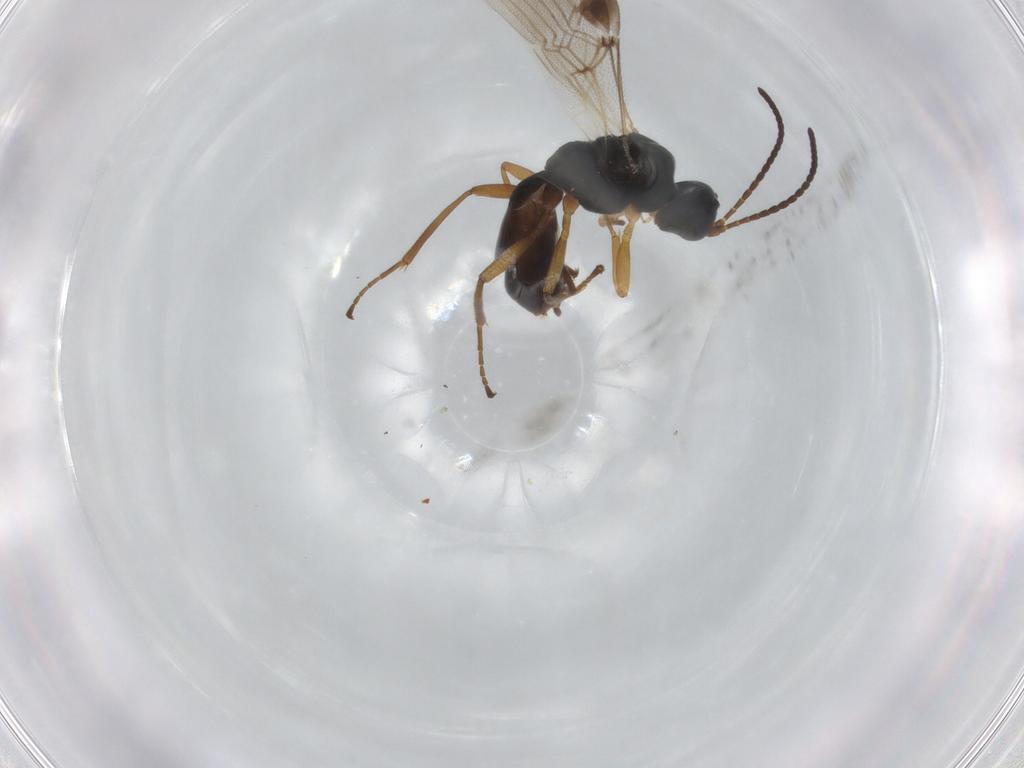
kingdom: Animalia
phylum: Arthropoda
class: Insecta
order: Hymenoptera
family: Braconidae
